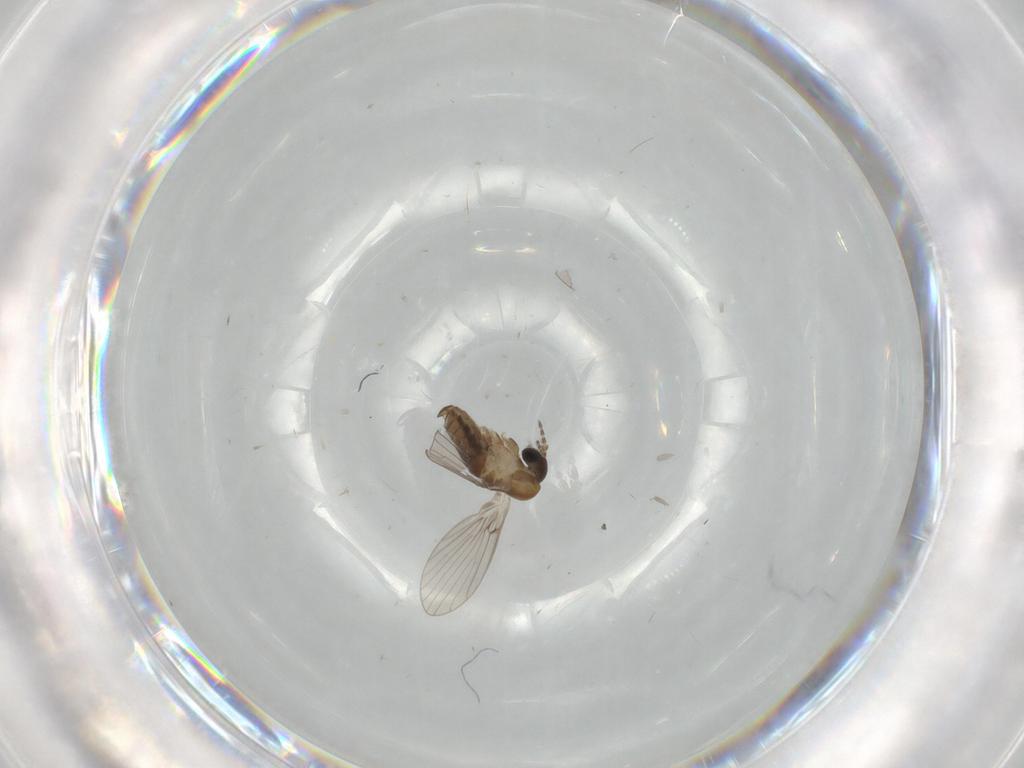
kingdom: Animalia
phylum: Arthropoda
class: Insecta
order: Diptera
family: Psychodidae
